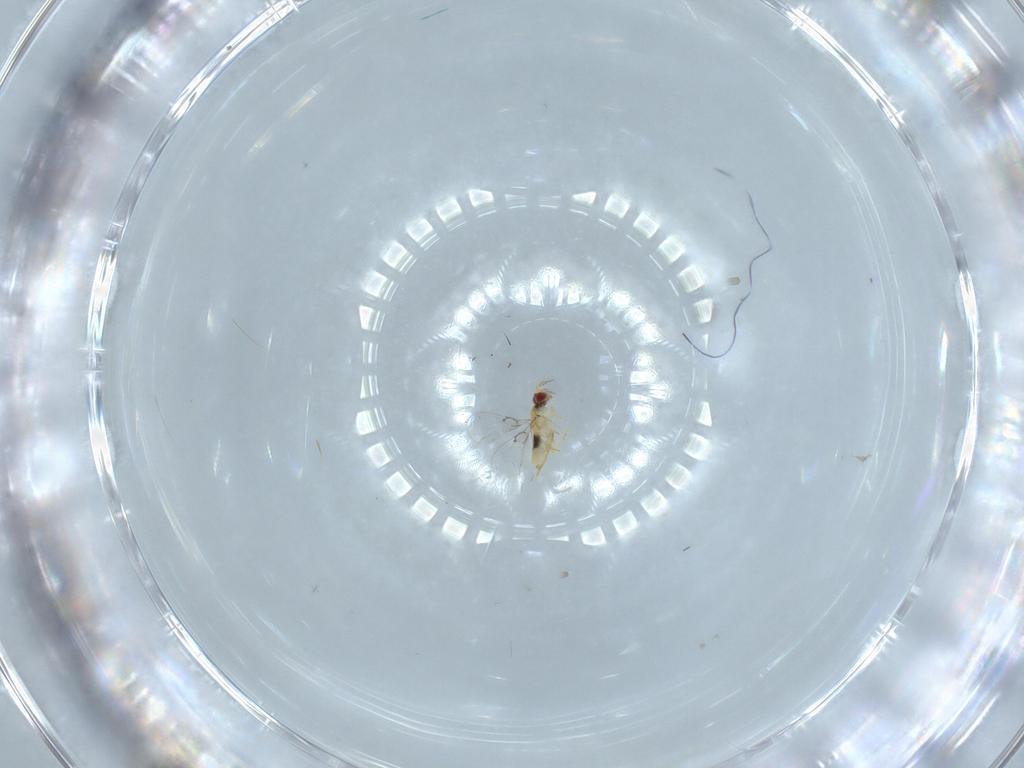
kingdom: Animalia
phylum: Arthropoda
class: Insecta
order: Hymenoptera
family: Trichogrammatidae
